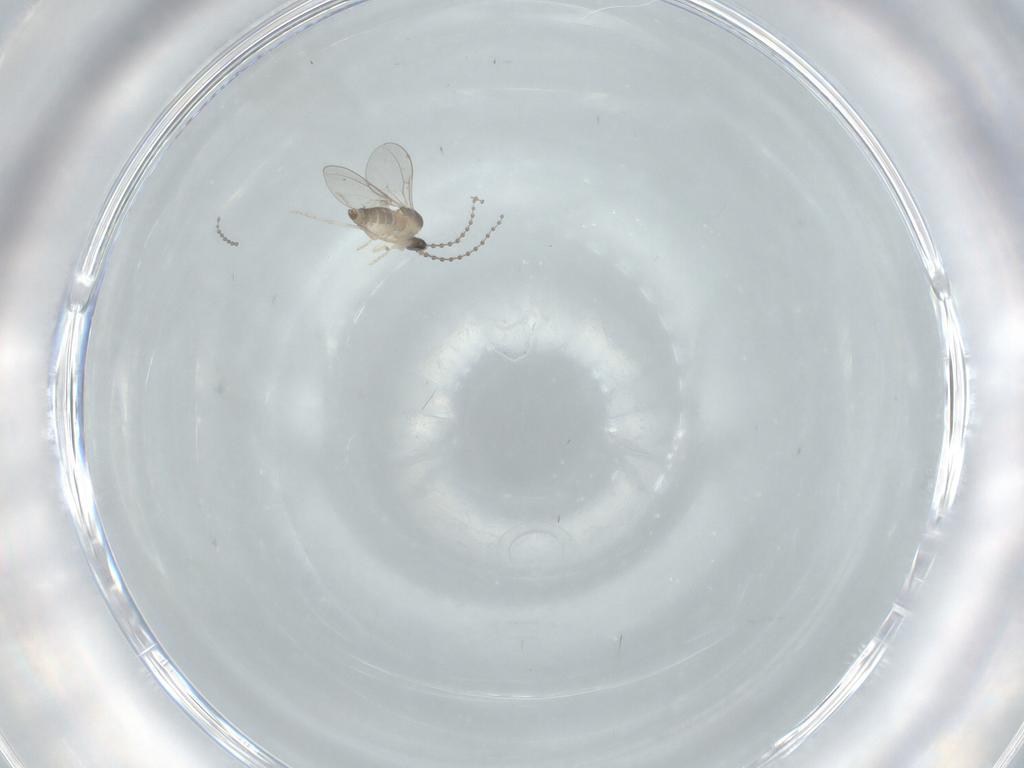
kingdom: Animalia
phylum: Arthropoda
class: Insecta
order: Diptera
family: Cecidomyiidae
